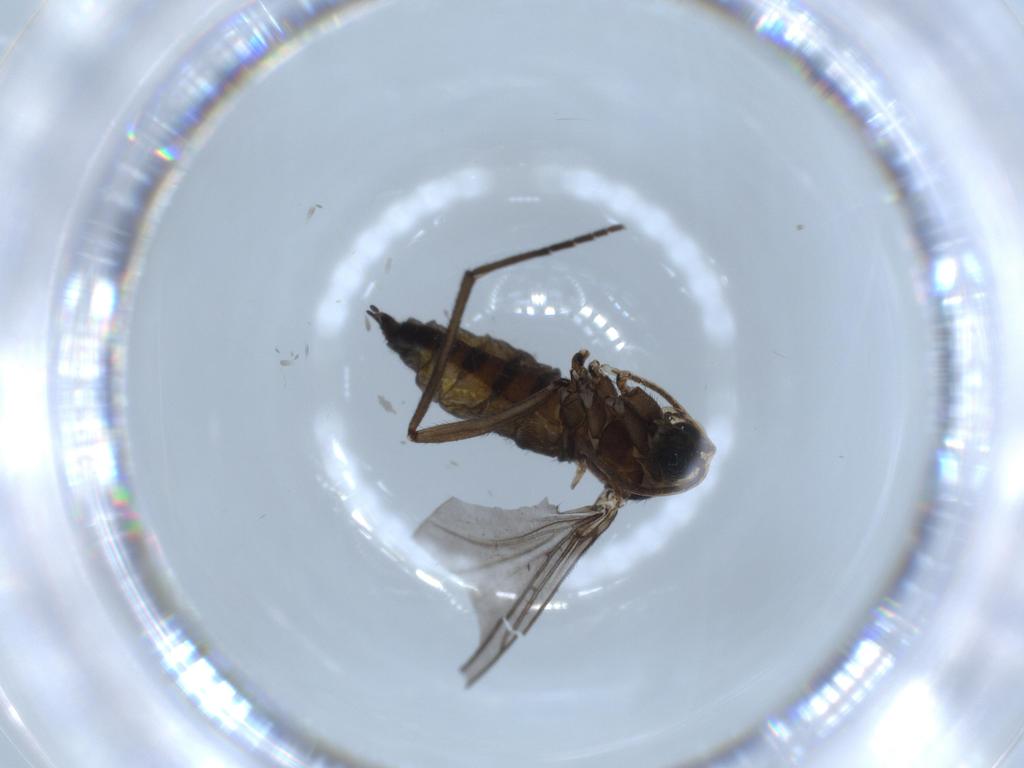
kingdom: Animalia
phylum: Arthropoda
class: Insecta
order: Diptera
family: Sciaridae
